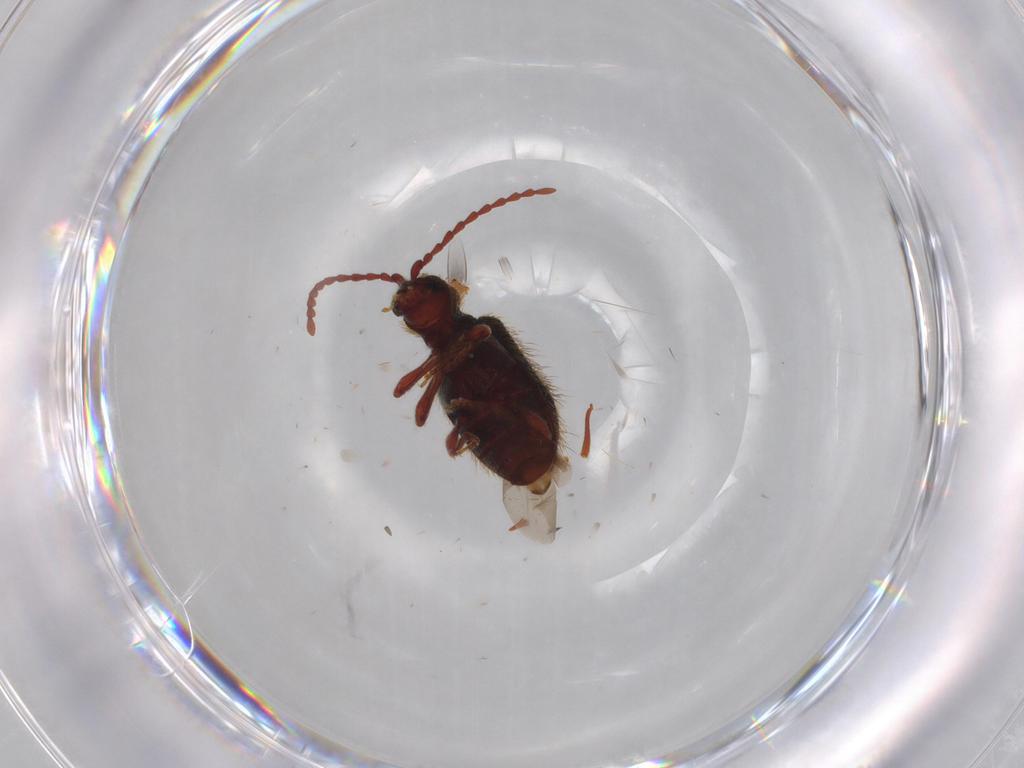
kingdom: Animalia
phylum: Arthropoda
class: Insecta
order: Coleoptera
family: Ptinidae
